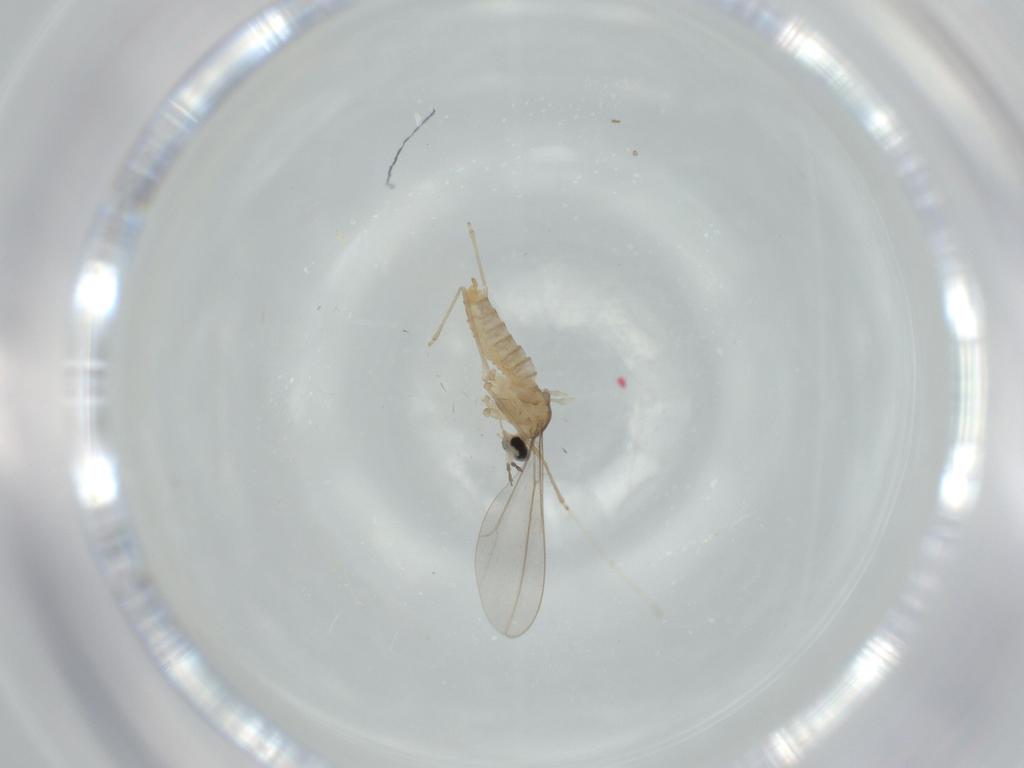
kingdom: Animalia
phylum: Arthropoda
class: Insecta
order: Diptera
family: Cecidomyiidae
